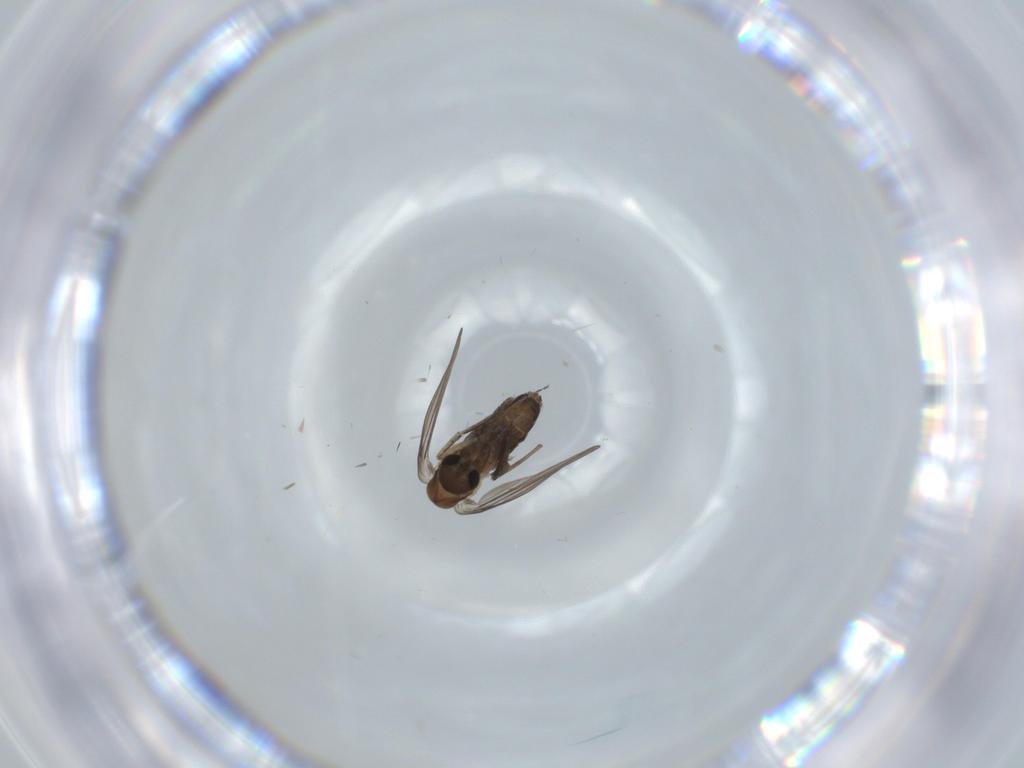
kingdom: Animalia
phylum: Arthropoda
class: Insecta
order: Diptera
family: Psychodidae
